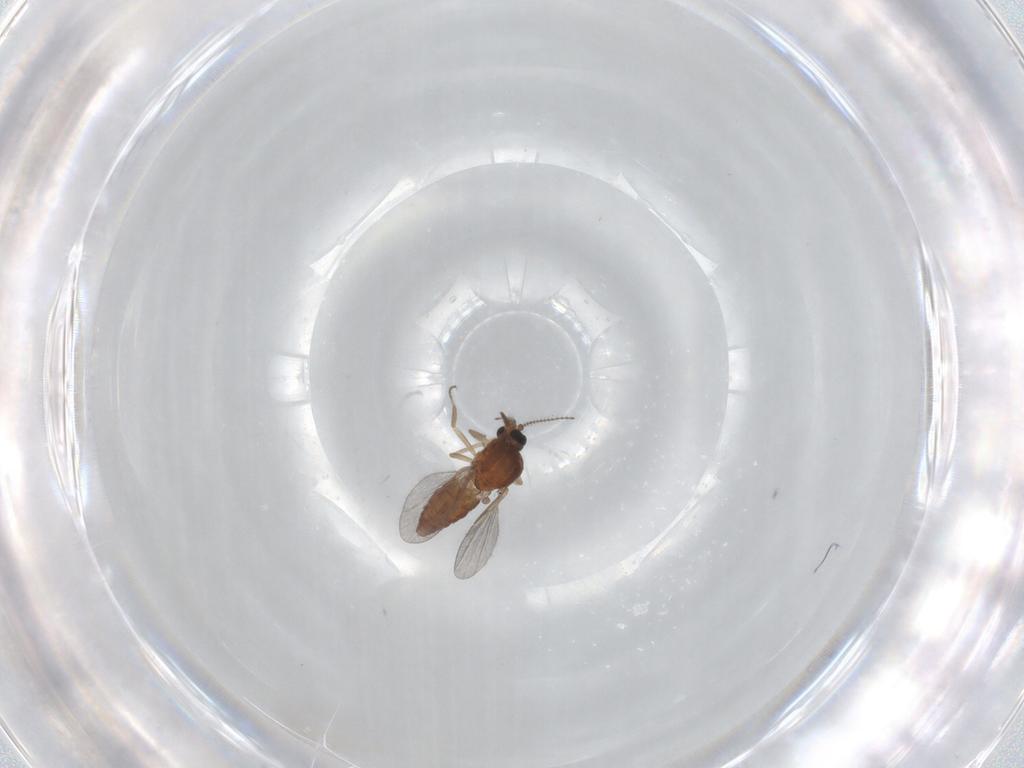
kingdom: Animalia
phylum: Arthropoda
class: Insecta
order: Diptera
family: Ceratopogonidae
